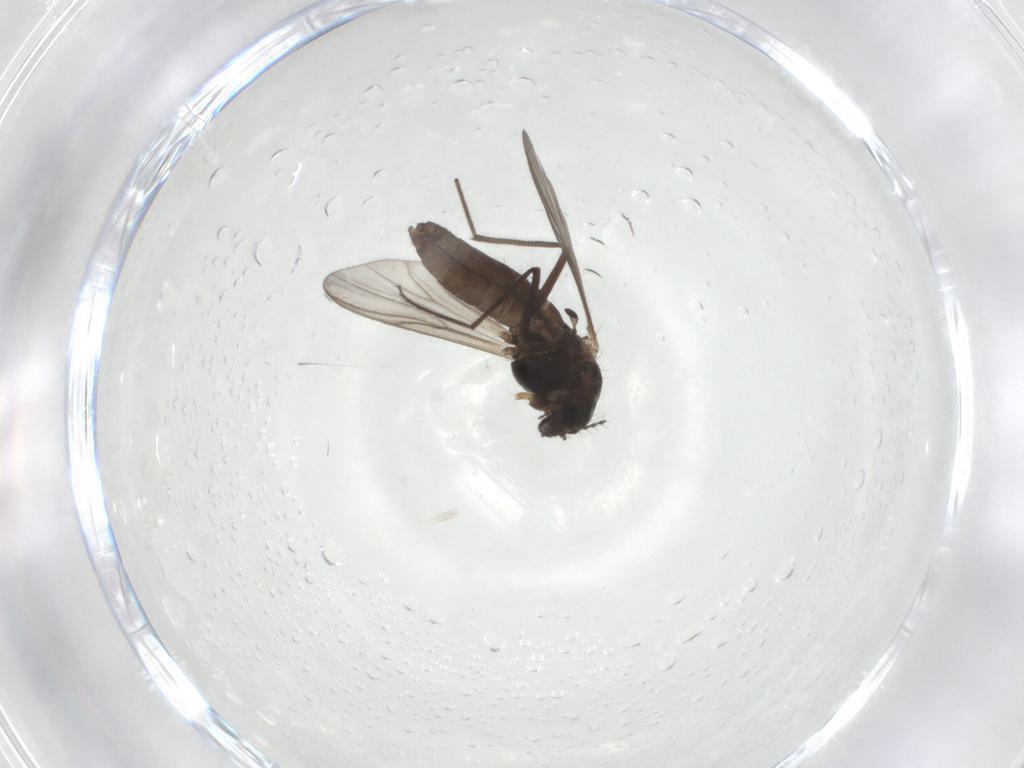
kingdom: Animalia
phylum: Arthropoda
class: Insecta
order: Diptera
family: Chironomidae
